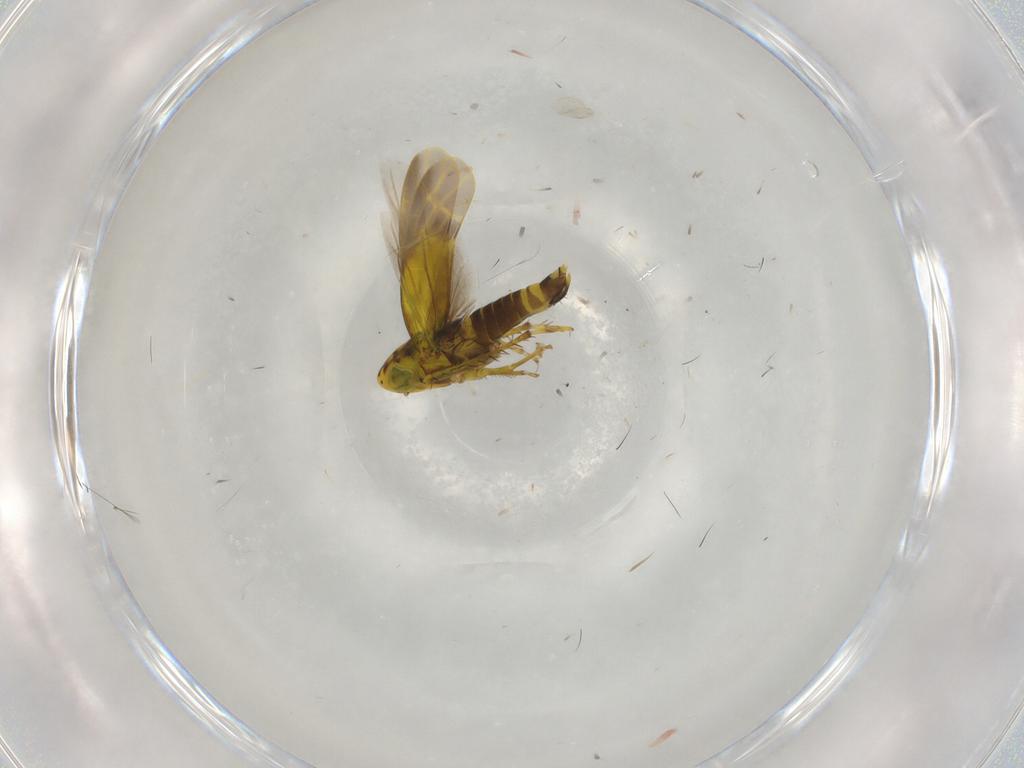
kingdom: Animalia
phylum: Arthropoda
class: Insecta
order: Hemiptera
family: Cicadellidae
